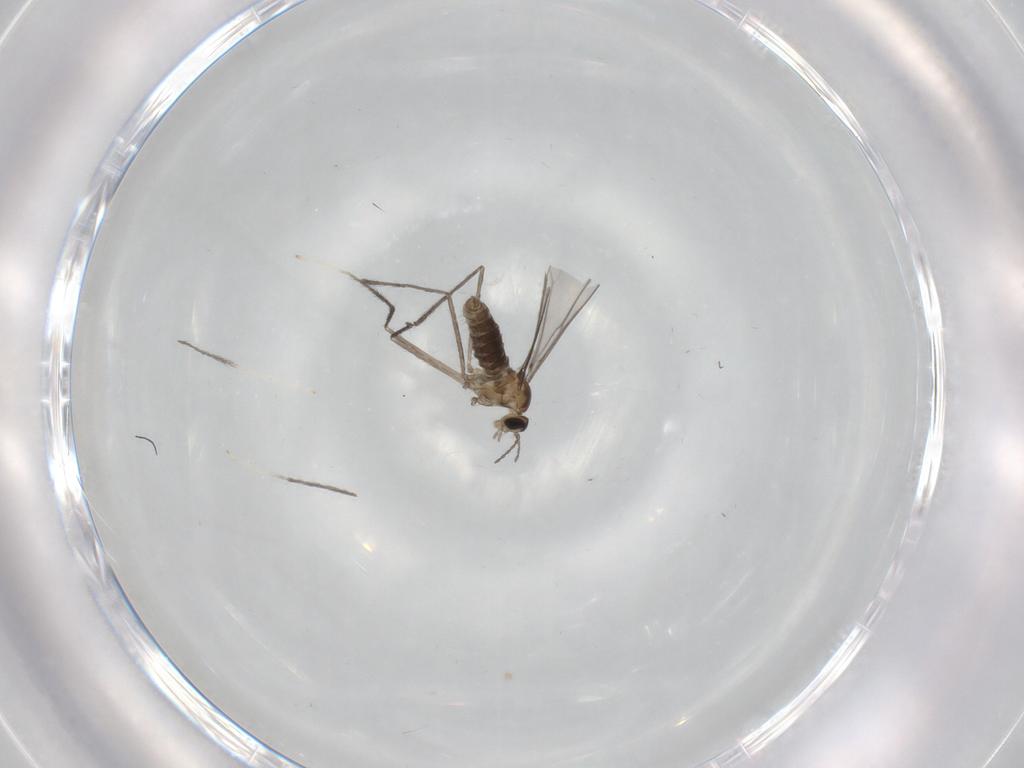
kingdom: Animalia
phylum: Arthropoda
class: Insecta
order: Diptera
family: Cecidomyiidae
